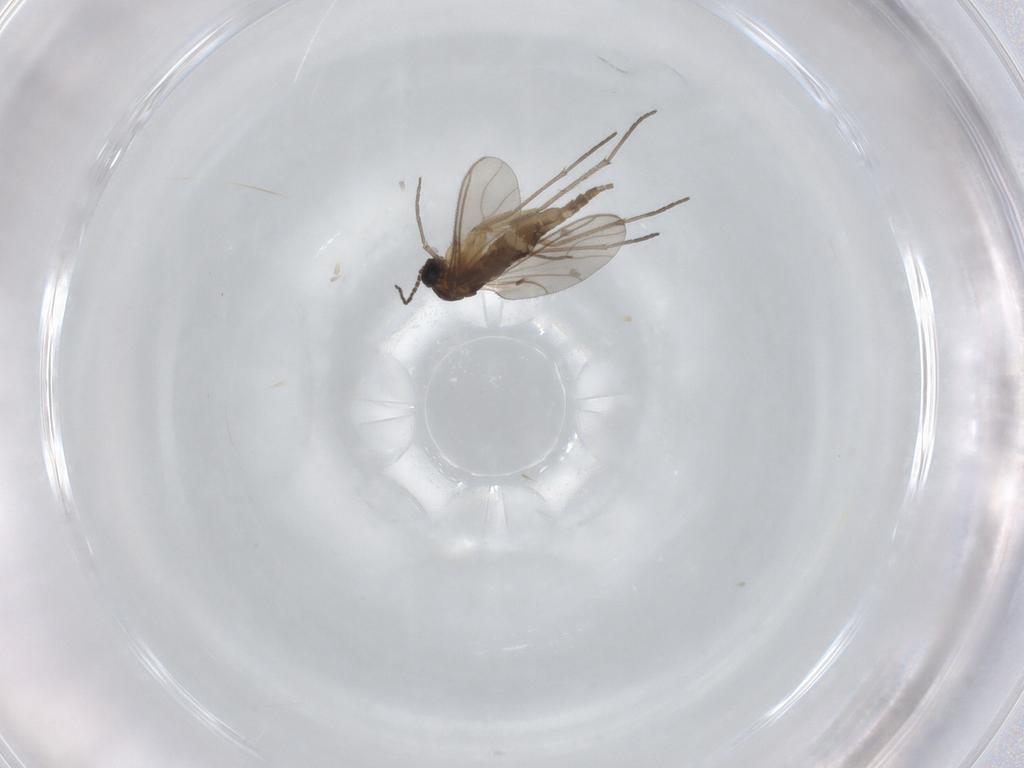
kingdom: Animalia
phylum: Arthropoda
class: Insecta
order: Diptera
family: Sciaridae
